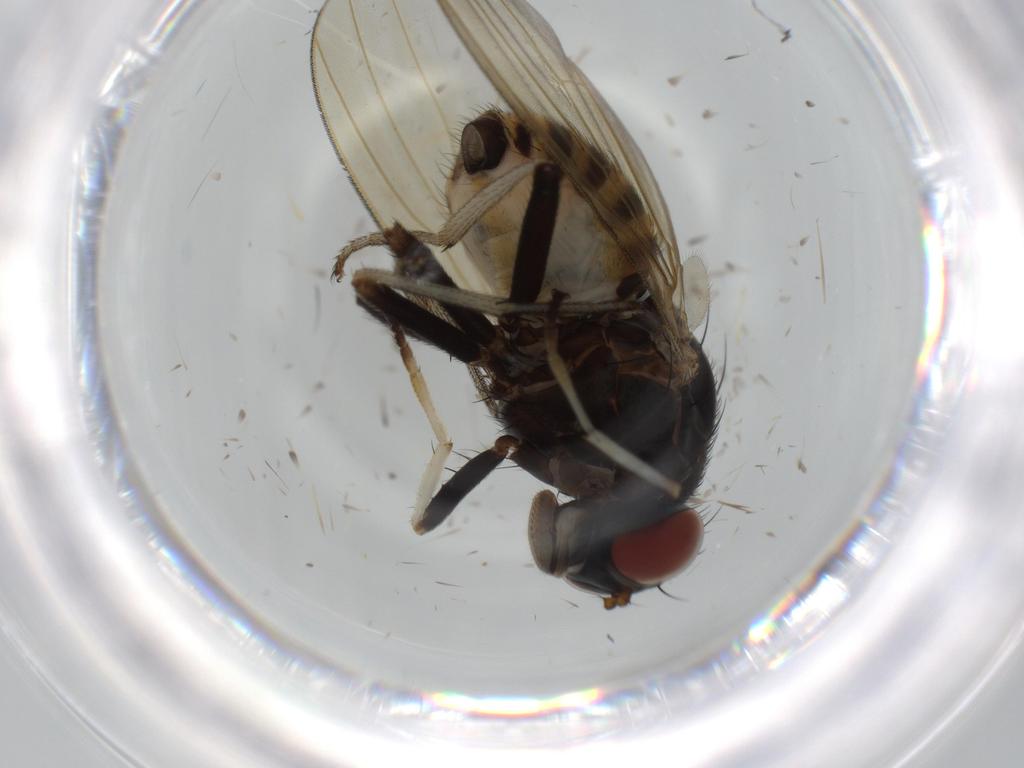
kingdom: Animalia
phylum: Arthropoda
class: Insecta
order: Diptera
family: Milichiidae
